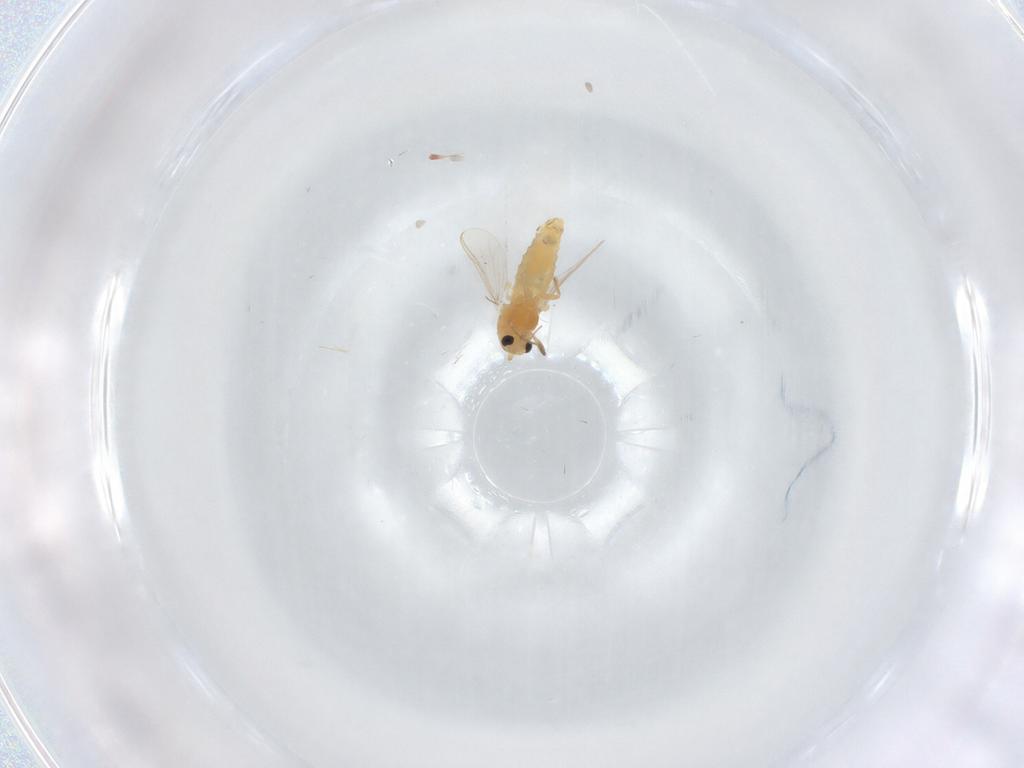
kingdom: Animalia
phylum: Arthropoda
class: Insecta
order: Diptera
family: Chironomidae
